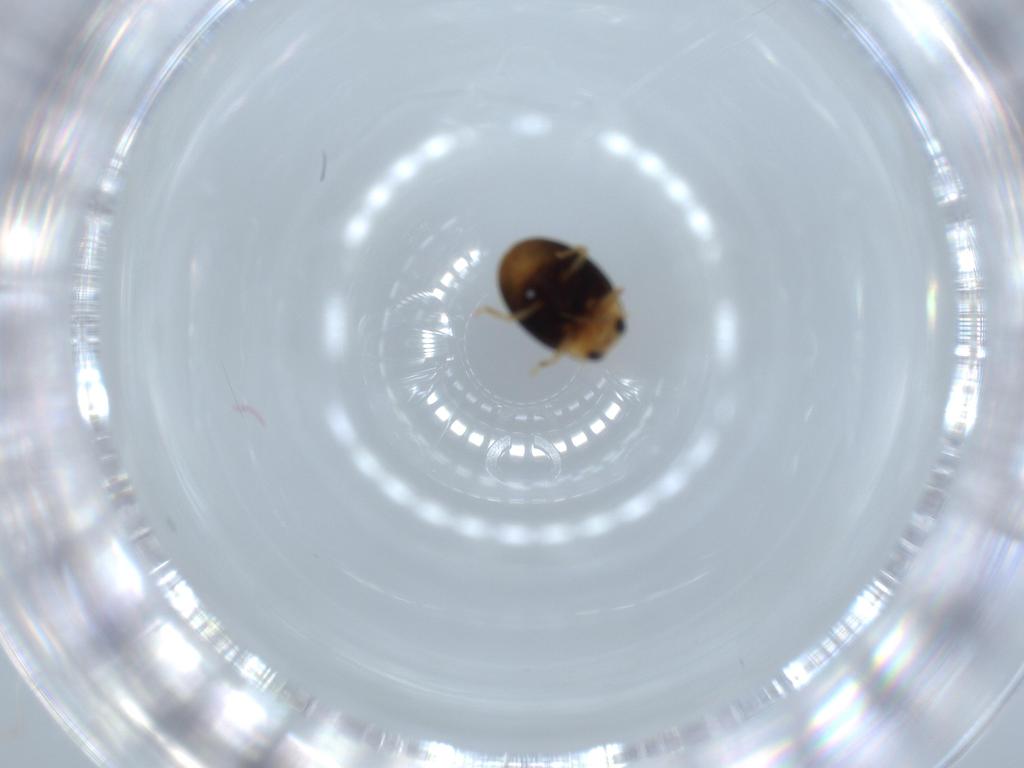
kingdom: Animalia
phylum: Arthropoda
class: Insecta
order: Coleoptera
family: Coccinellidae
